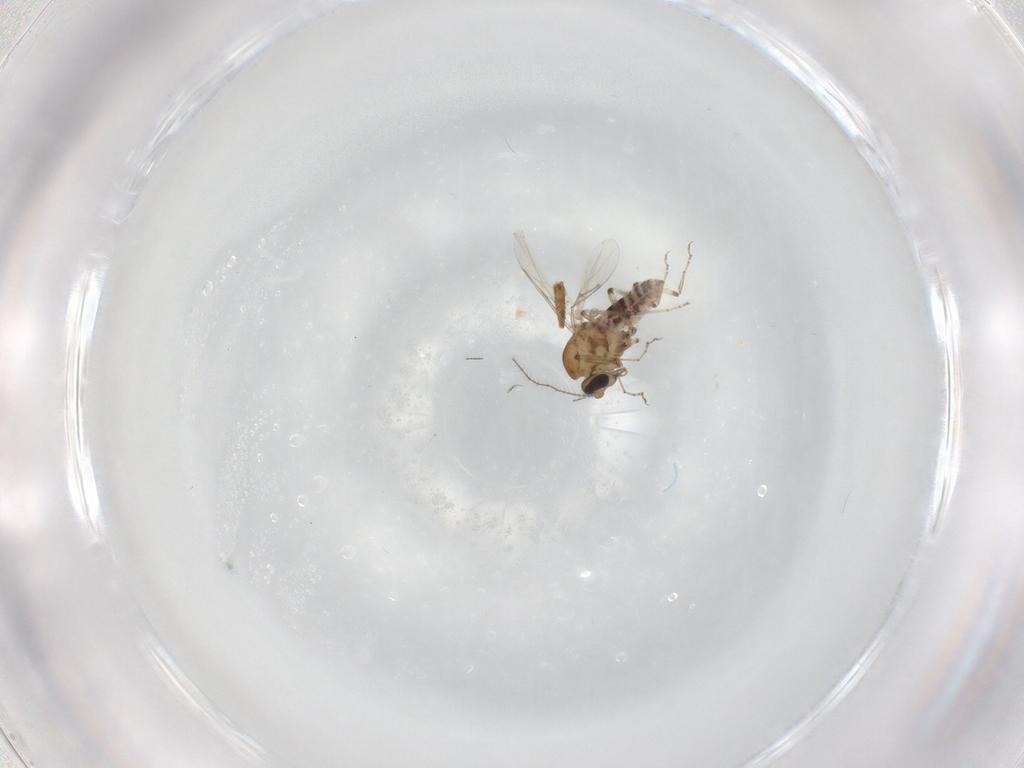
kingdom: Animalia
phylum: Arthropoda
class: Insecta
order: Diptera
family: Ceratopogonidae
